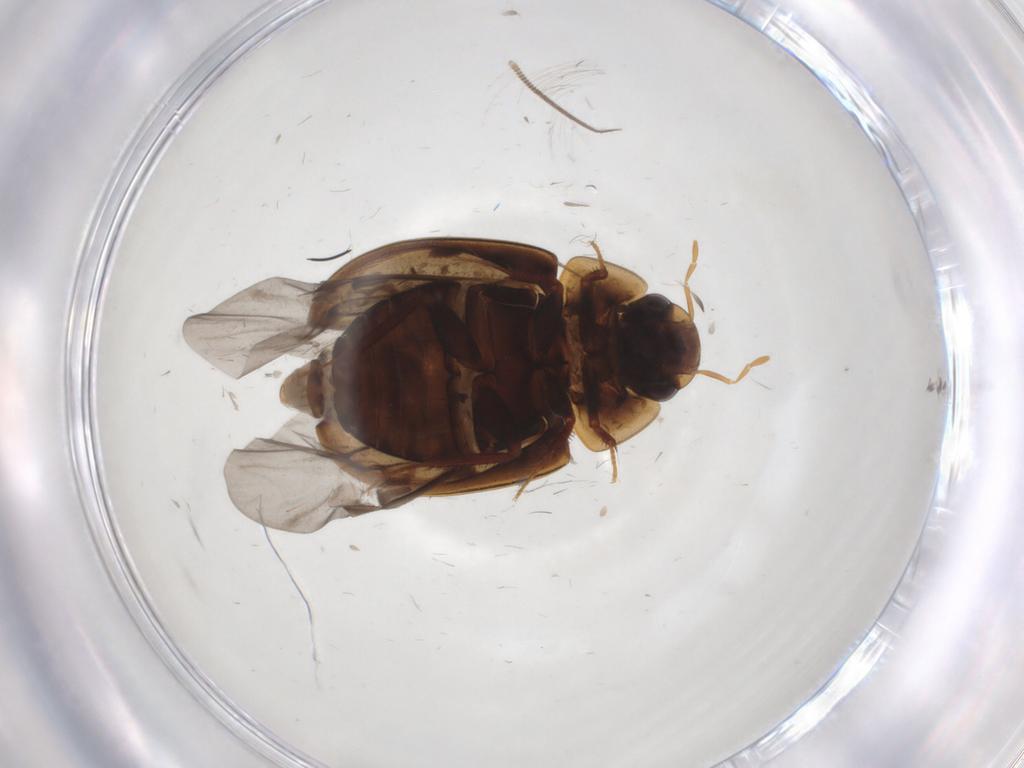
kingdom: Animalia
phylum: Arthropoda
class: Insecta
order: Coleoptera
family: Hydrophilidae
